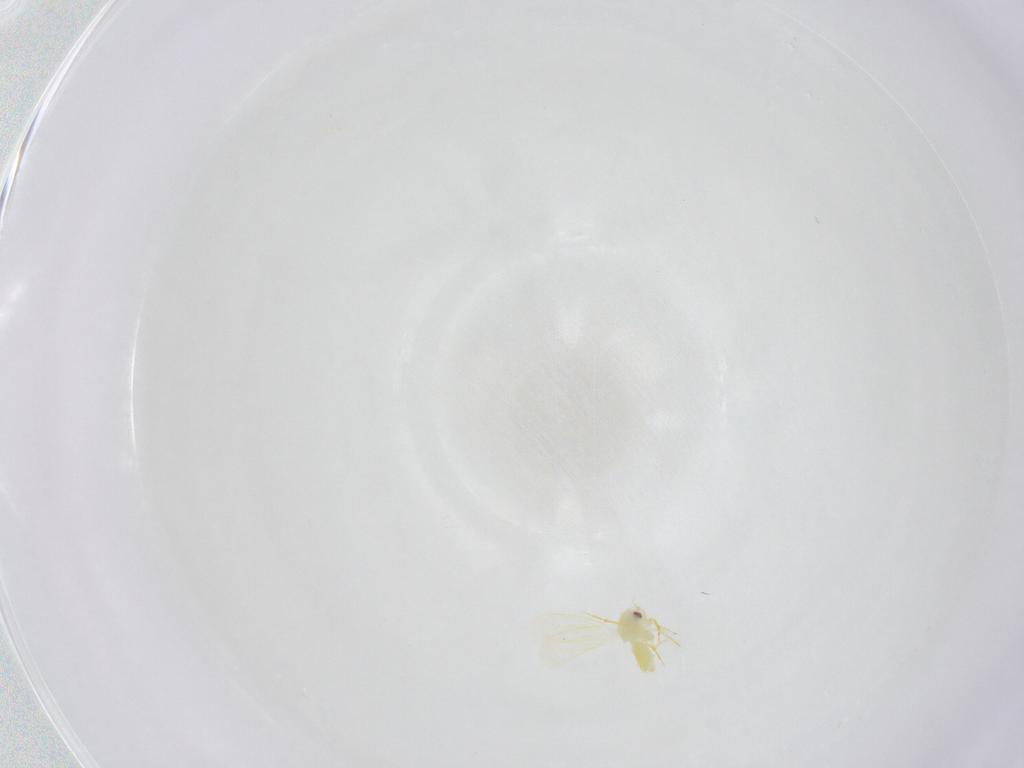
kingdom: Animalia
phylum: Arthropoda
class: Insecta
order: Hemiptera
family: Aleyrodidae
